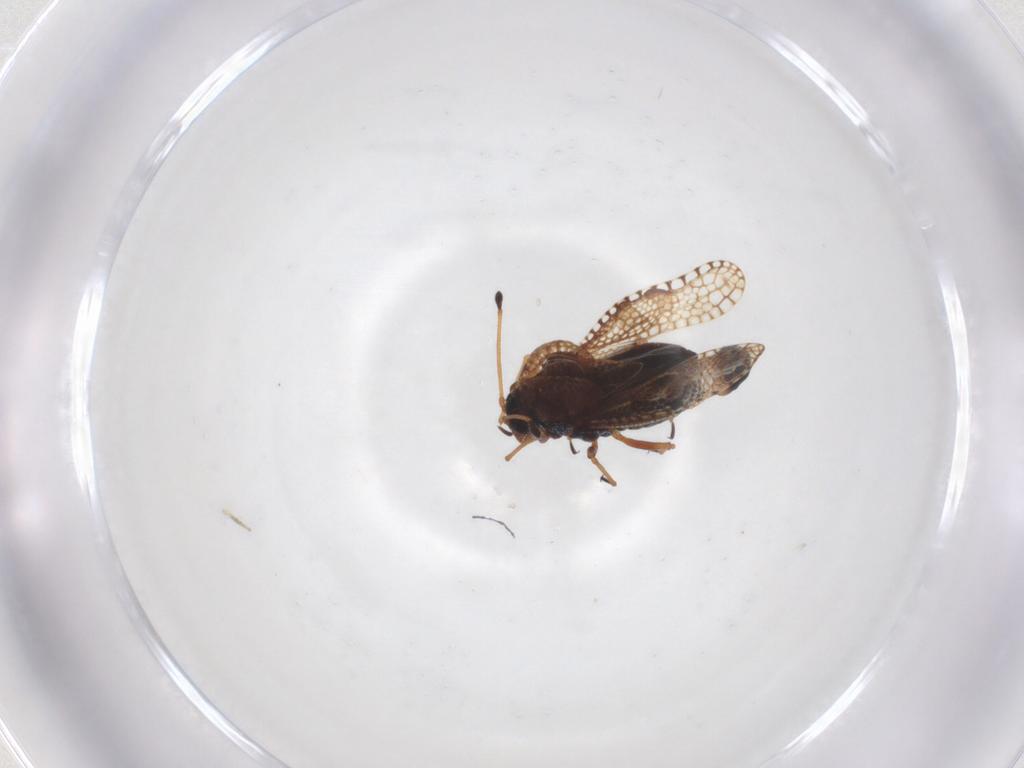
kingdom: Animalia
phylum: Arthropoda
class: Insecta
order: Hemiptera
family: Tingidae
